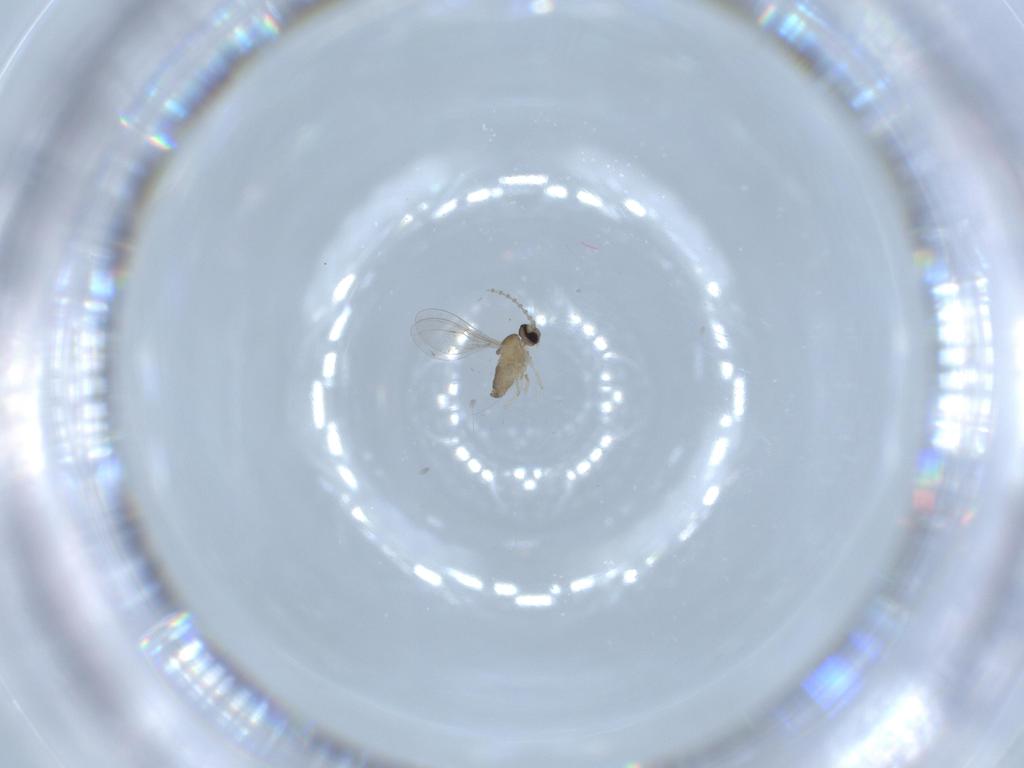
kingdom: Animalia
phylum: Arthropoda
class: Insecta
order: Diptera
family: Cecidomyiidae
